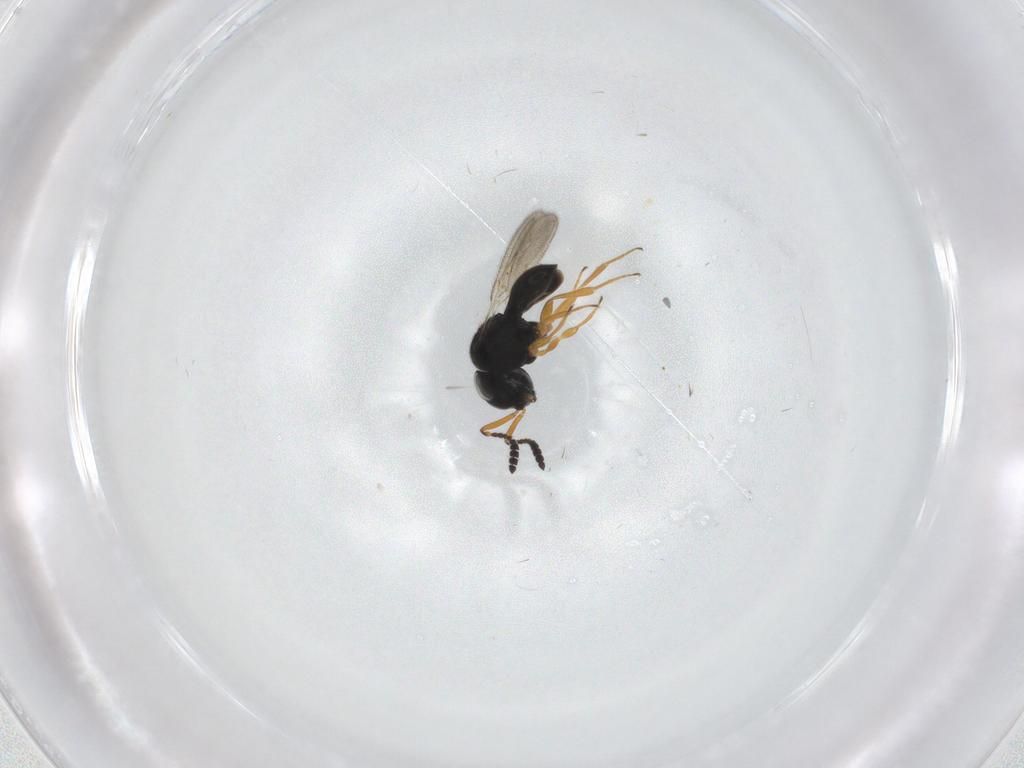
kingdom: Animalia
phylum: Arthropoda
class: Insecta
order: Hymenoptera
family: Scelionidae
